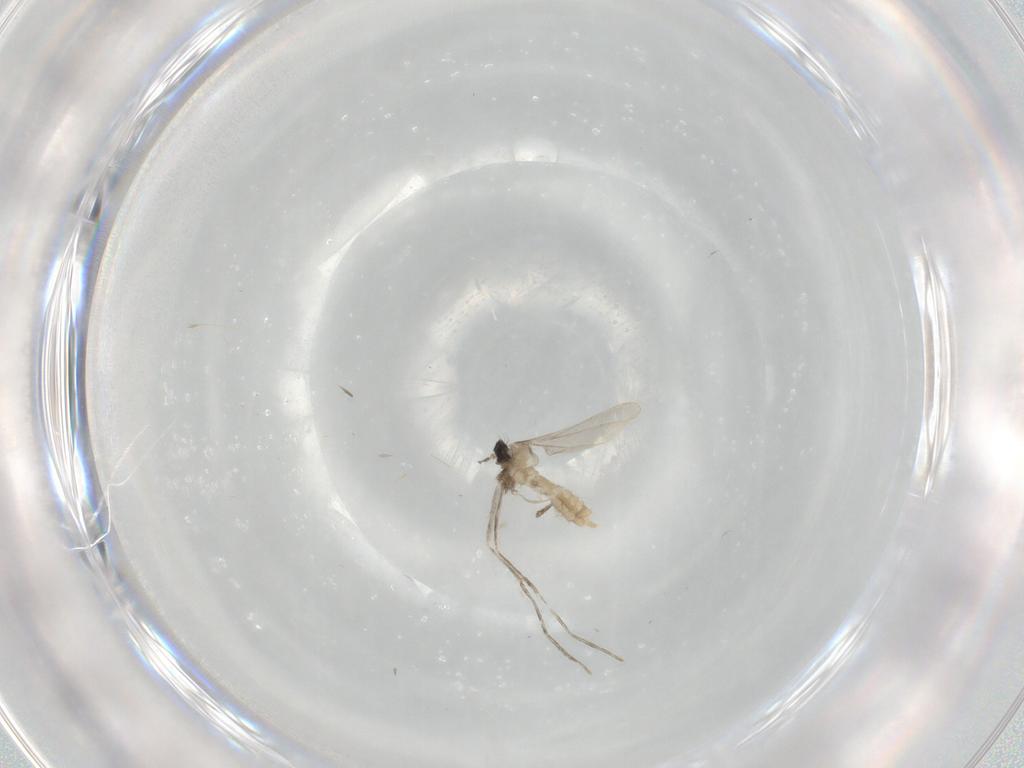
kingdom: Animalia
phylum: Arthropoda
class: Insecta
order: Diptera
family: Cecidomyiidae
